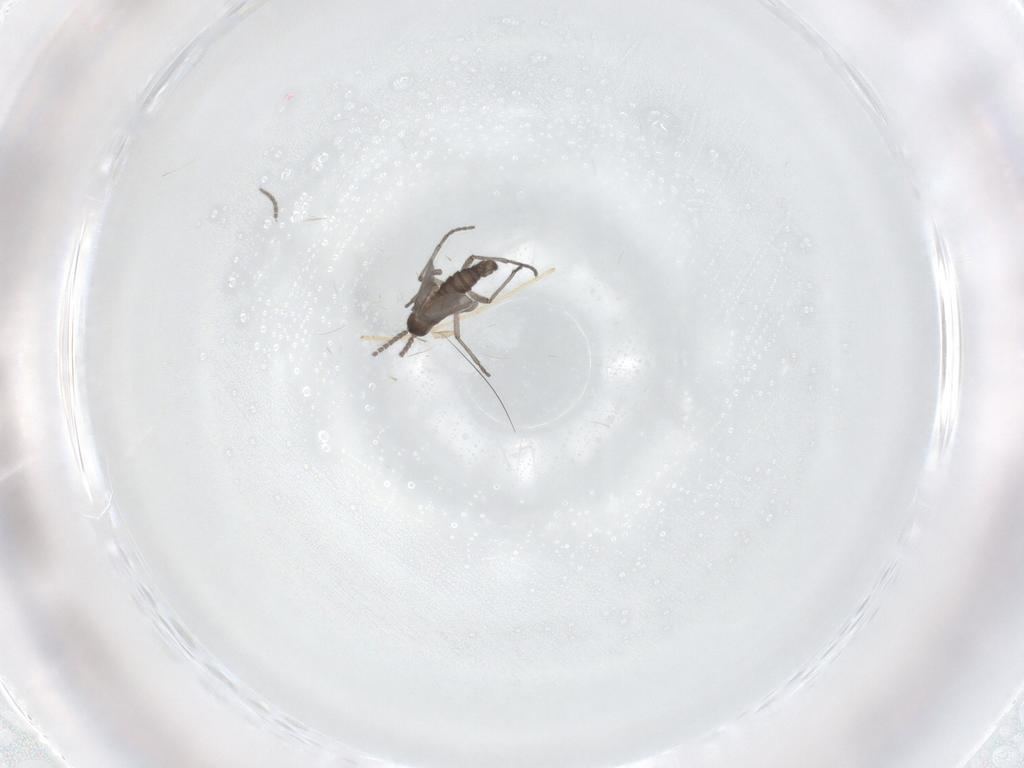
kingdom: Animalia
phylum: Arthropoda
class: Insecta
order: Diptera
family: Sciaridae
